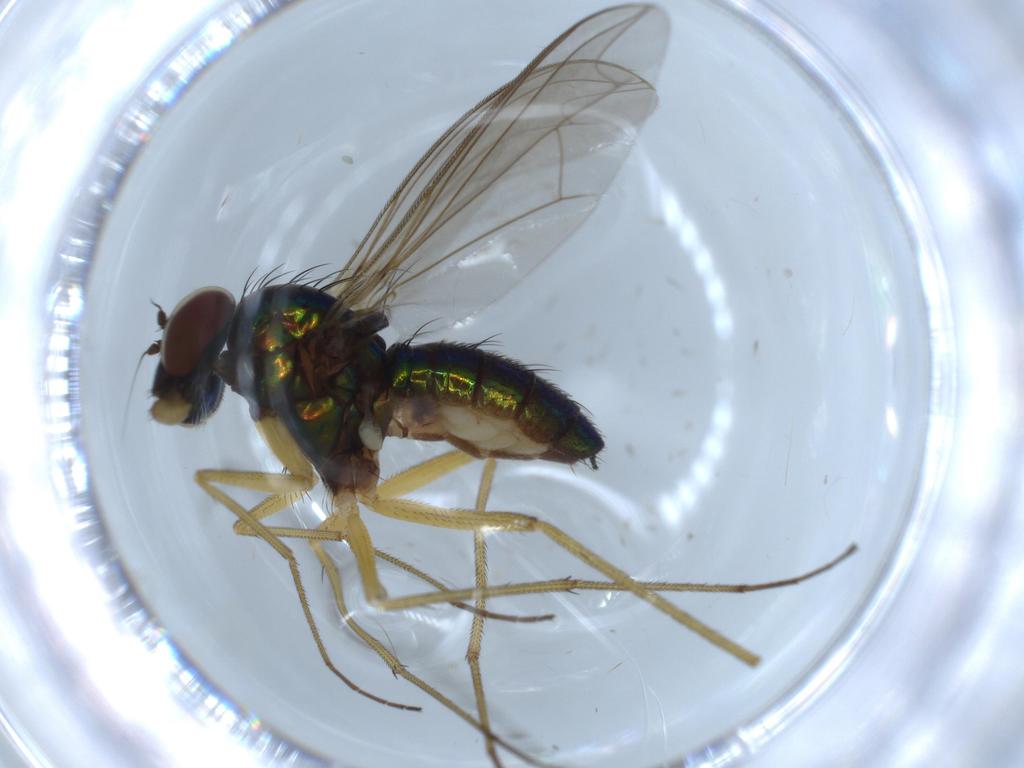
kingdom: Animalia
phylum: Arthropoda
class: Insecta
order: Diptera
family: Dolichopodidae
